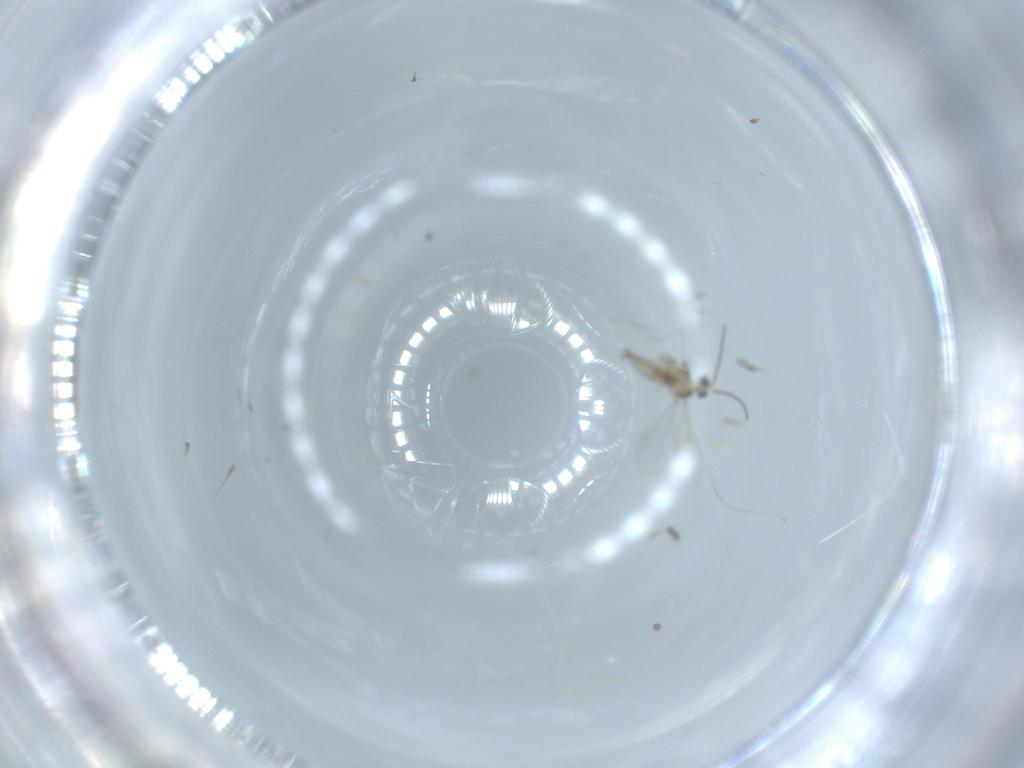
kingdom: Animalia
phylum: Arthropoda
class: Insecta
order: Diptera
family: Cecidomyiidae
